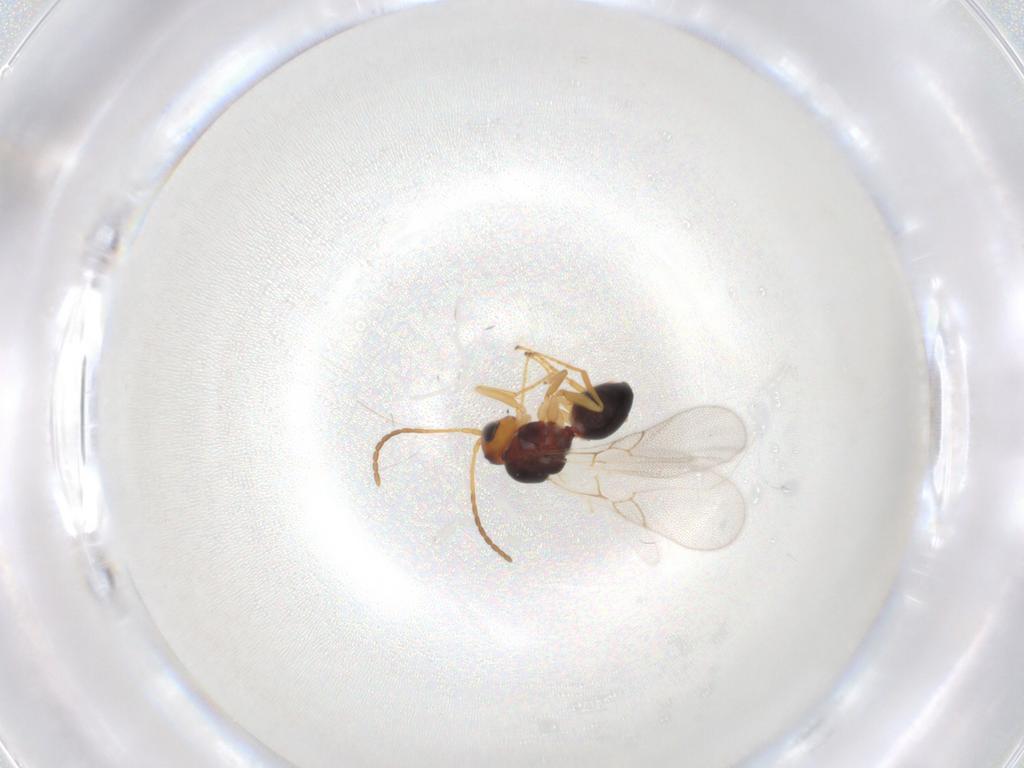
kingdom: Animalia
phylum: Arthropoda
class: Insecta
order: Hymenoptera
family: Figitidae
